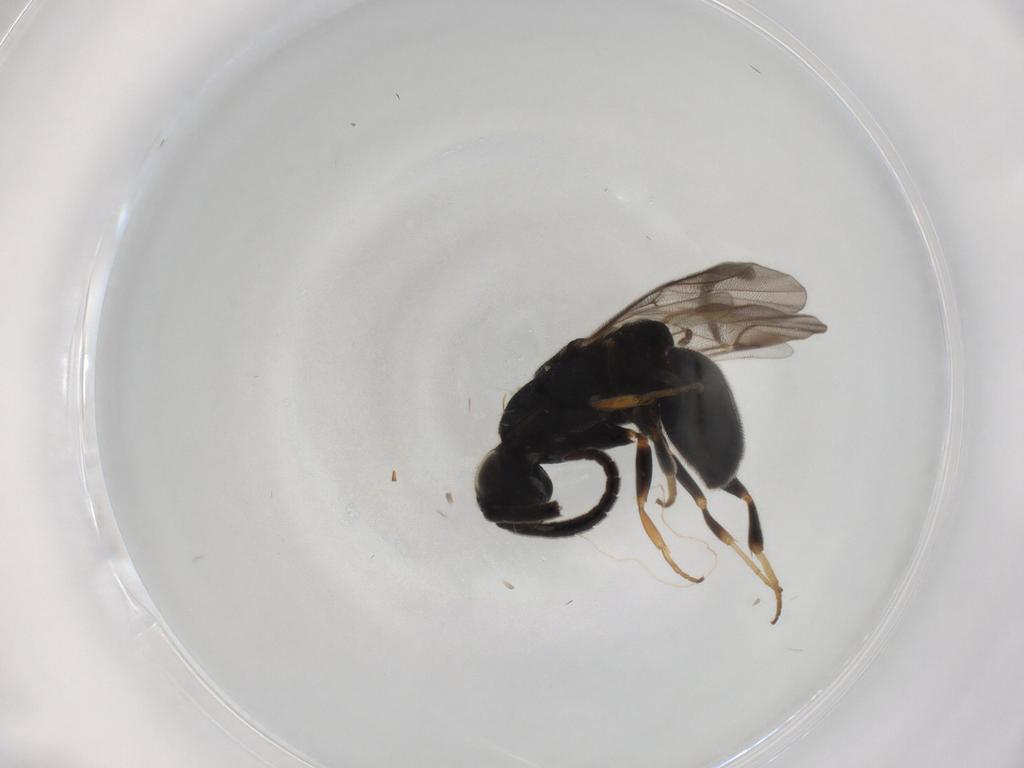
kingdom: Animalia
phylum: Arthropoda
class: Insecta
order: Hymenoptera
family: Chrysididae
